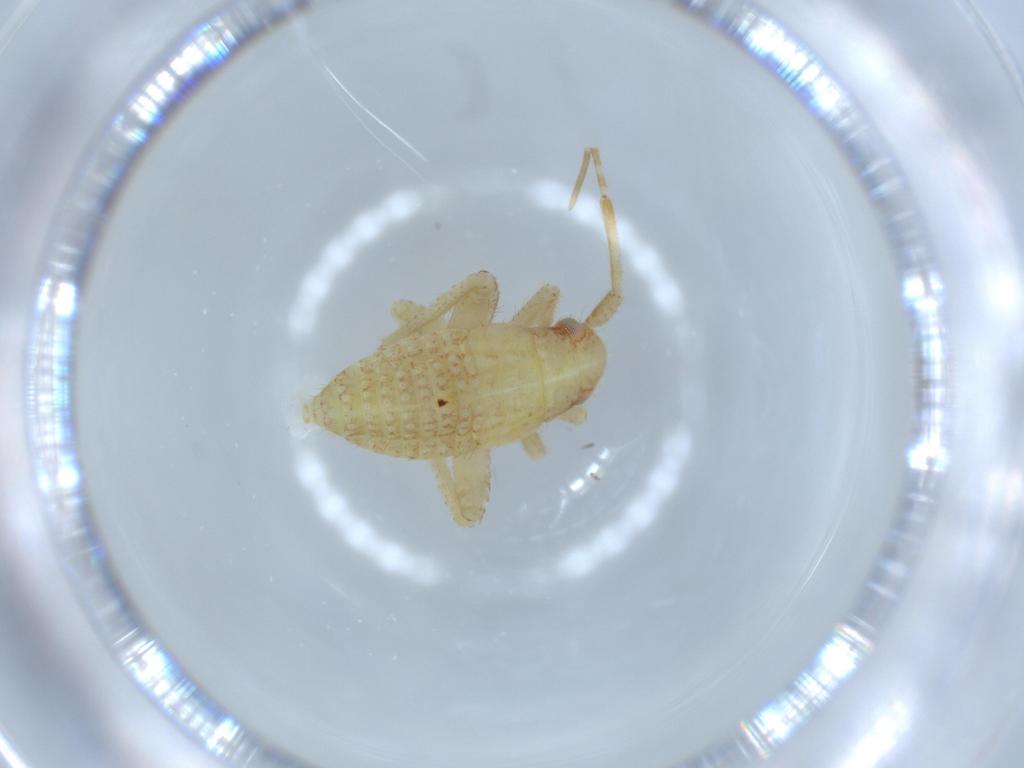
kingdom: Animalia
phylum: Arthropoda
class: Insecta
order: Hemiptera
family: Miridae
